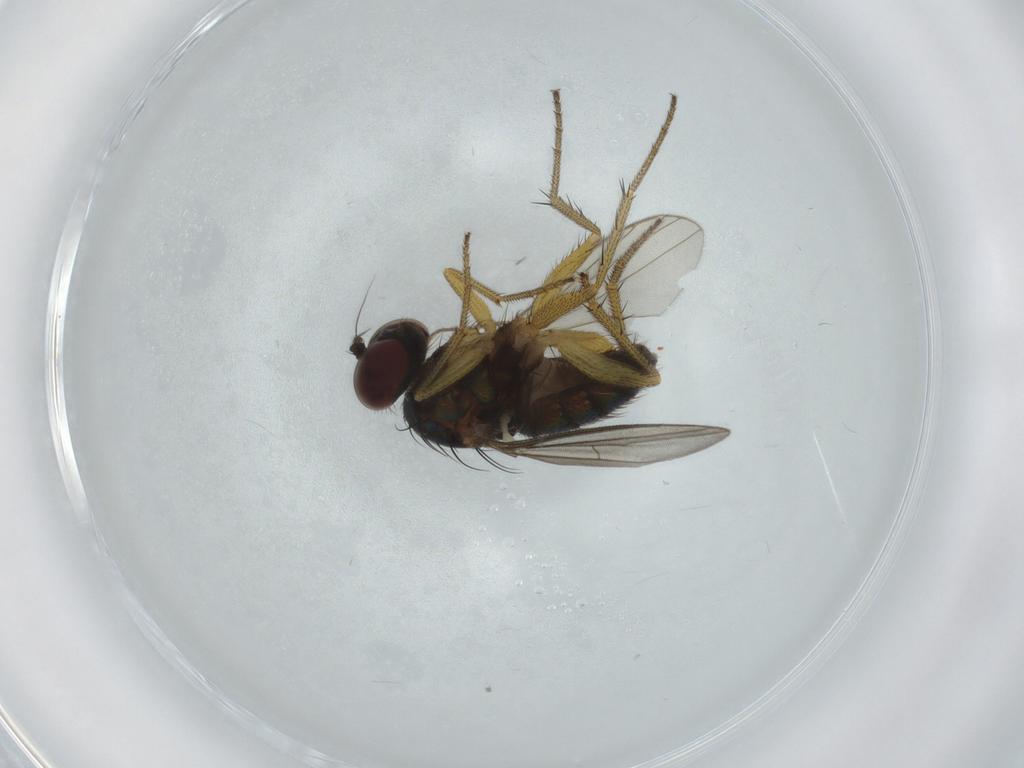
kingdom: Animalia
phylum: Arthropoda
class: Insecta
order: Diptera
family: Dolichopodidae
